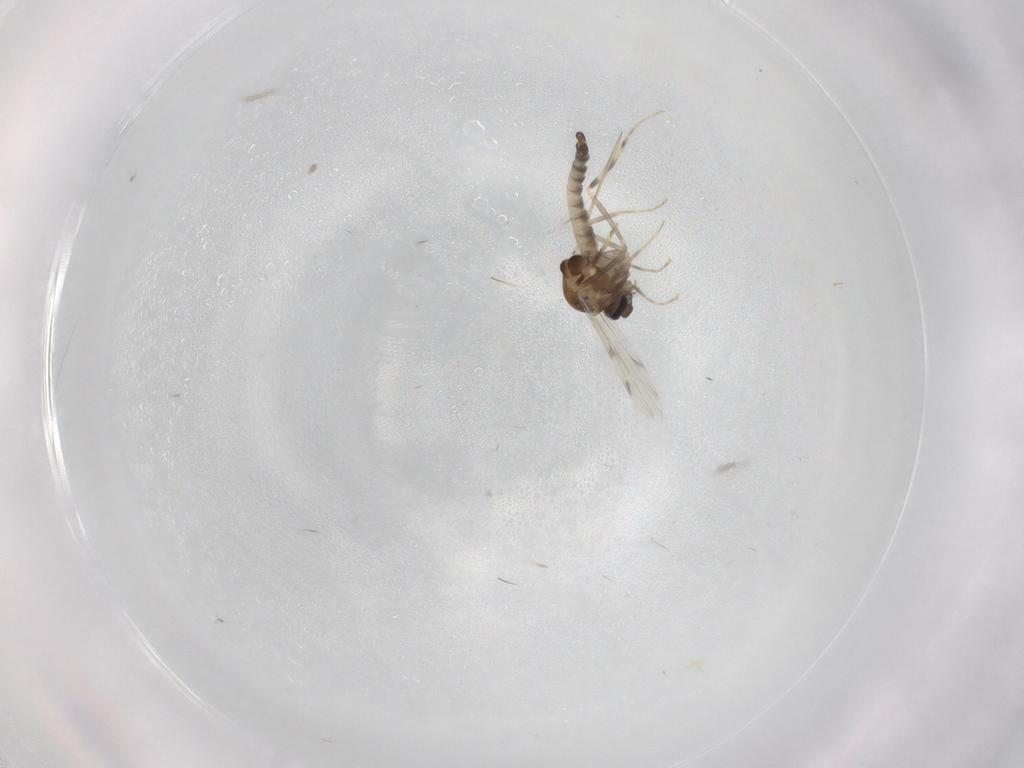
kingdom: Animalia
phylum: Arthropoda
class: Insecta
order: Diptera
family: Ceratopogonidae
